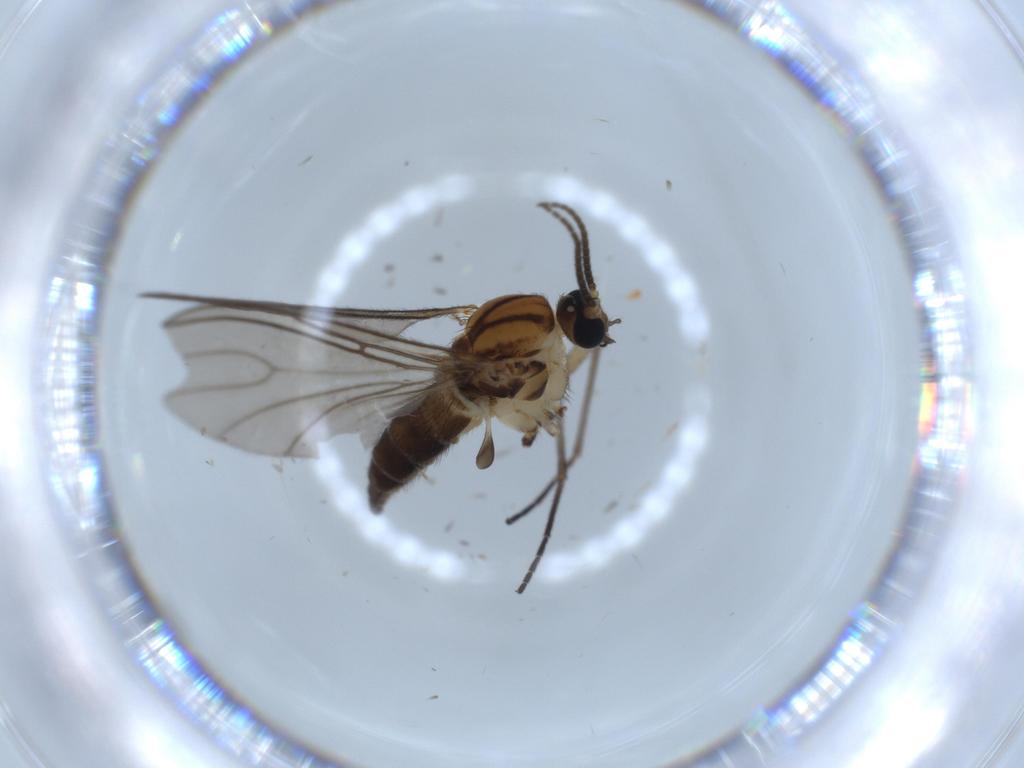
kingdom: Animalia
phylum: Arthropoda
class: Insecta
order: Diptera
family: Sciaridae
